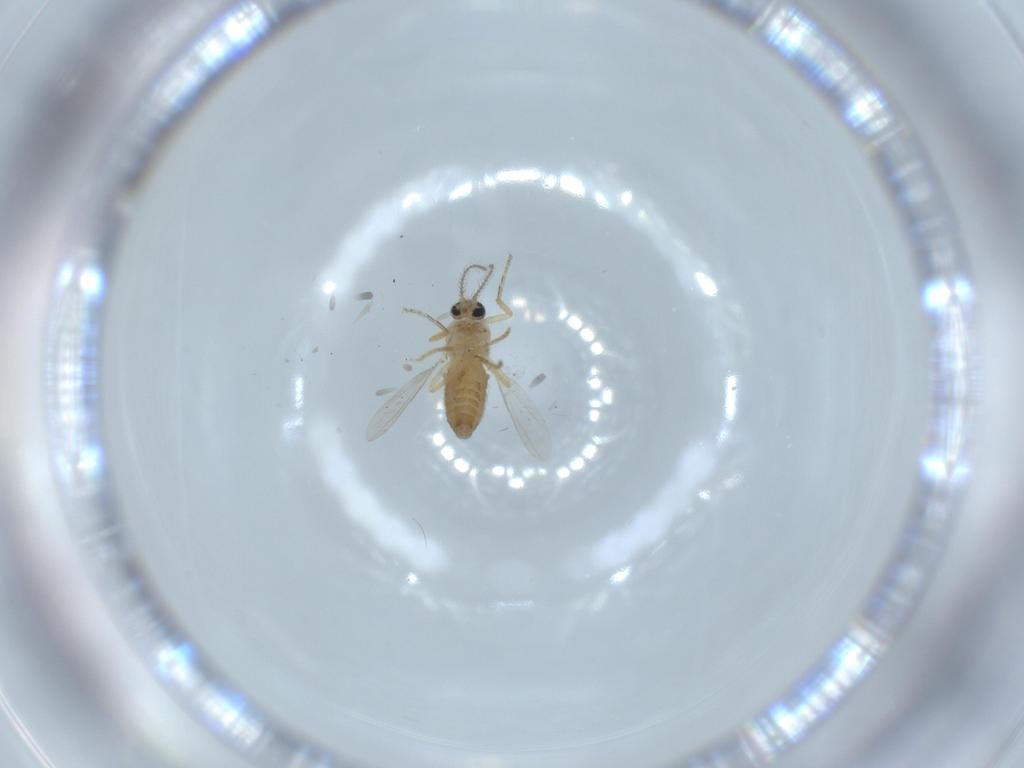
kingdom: Animalia
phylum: Arthropoda
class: Insecta
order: Diptera
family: Ceratopogonidae
